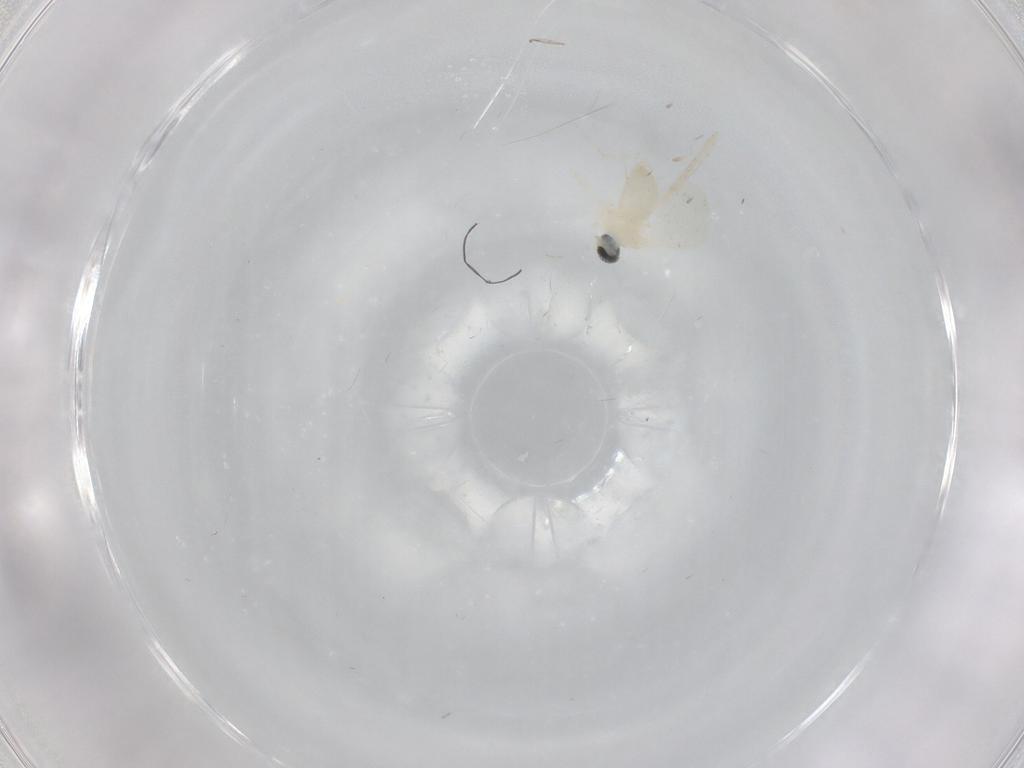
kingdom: Animalia
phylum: Arthropoda
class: Insecta
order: Diptera
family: Cecidomyiidae
